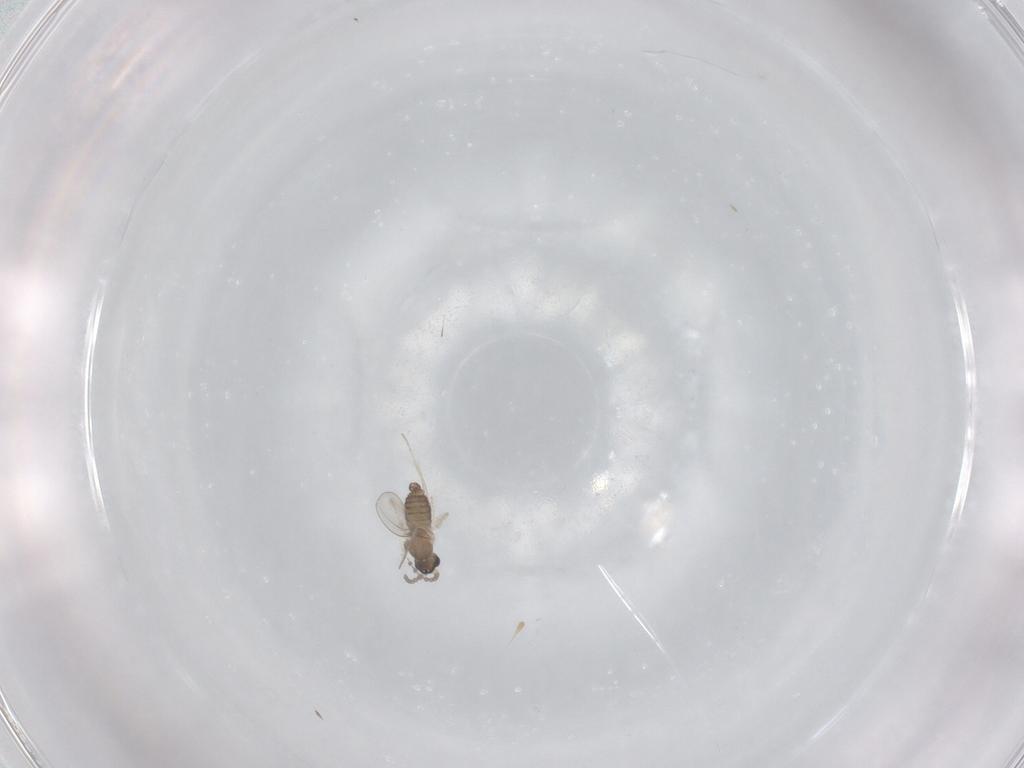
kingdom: Animalia
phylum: Arthropoda
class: Insecta
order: Diptera
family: Cecidomyiidae
